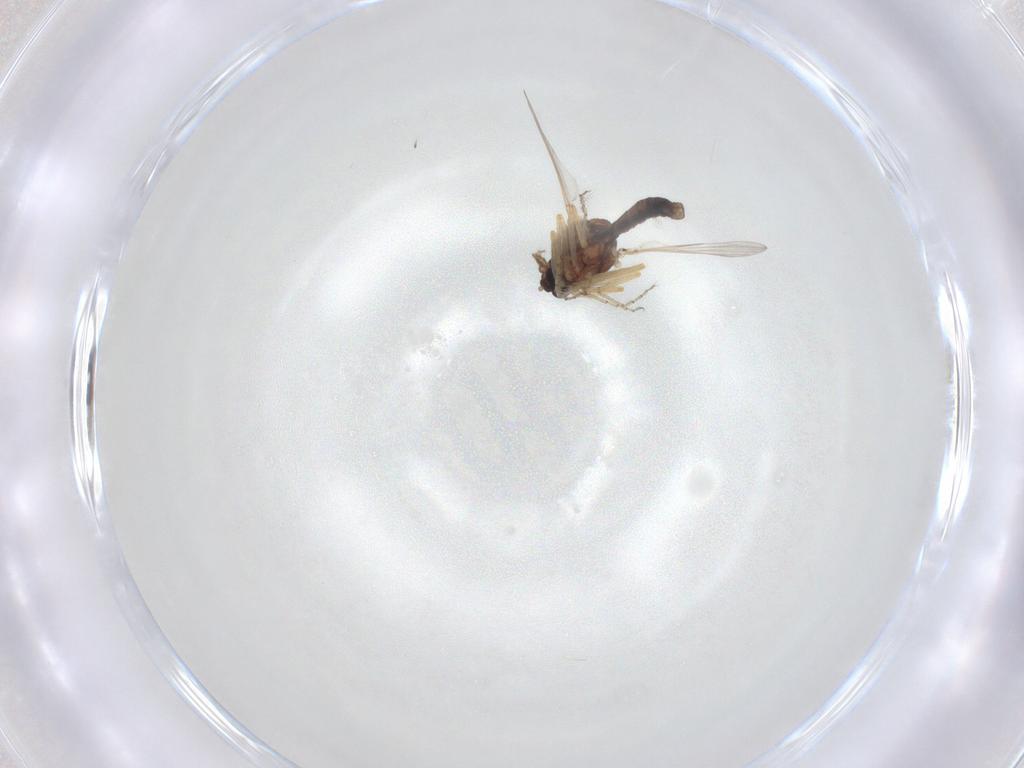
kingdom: Animalia
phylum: Arthropoda
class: Insecta
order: Diptera
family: Ceratopogonidae
